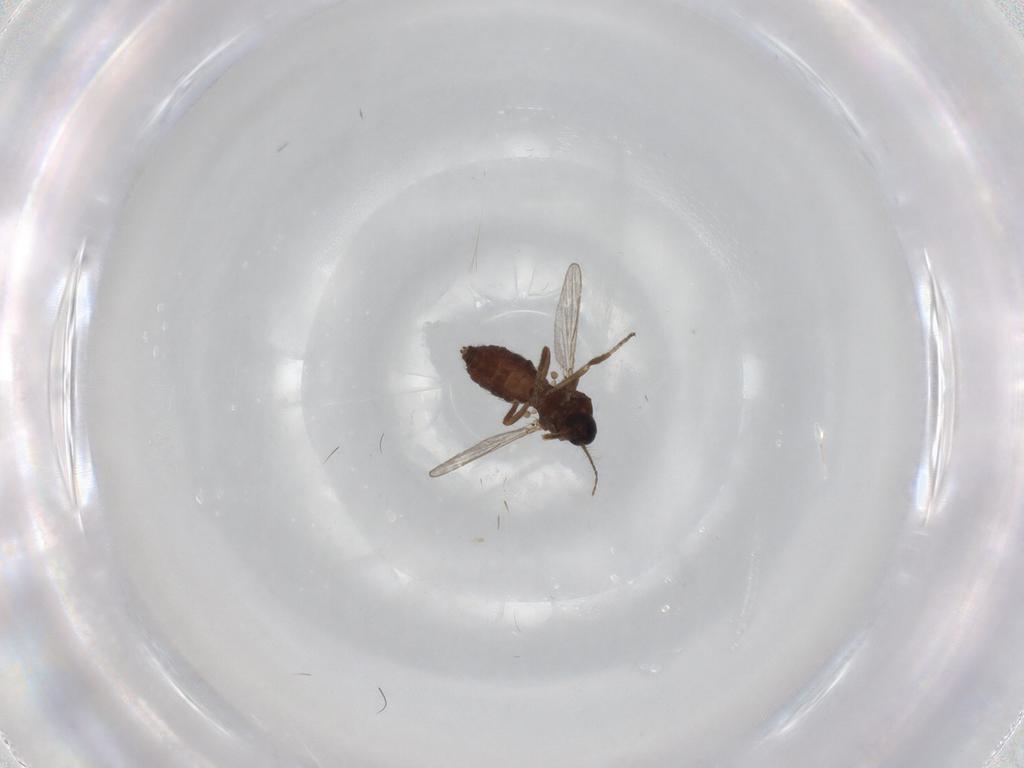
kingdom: Animalia
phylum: Arthropoda
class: Insecta
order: Diptera
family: Ceratopogonidae
